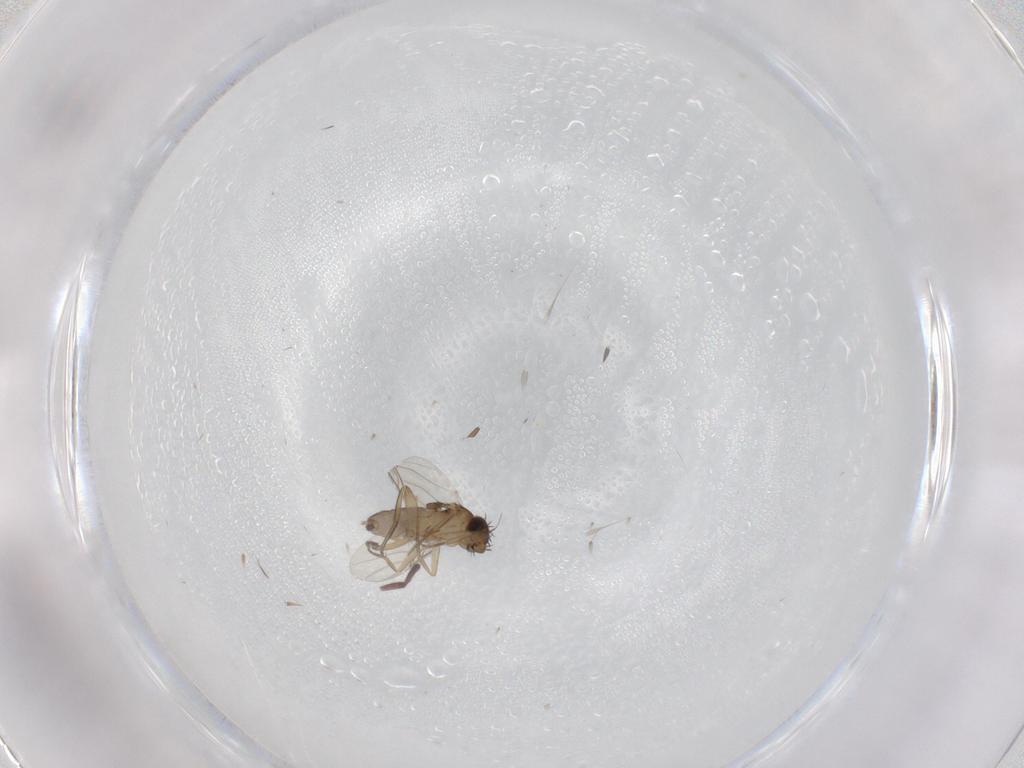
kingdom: Animalia
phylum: Arthropoda
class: Insecta
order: Diptera
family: Phoridae
